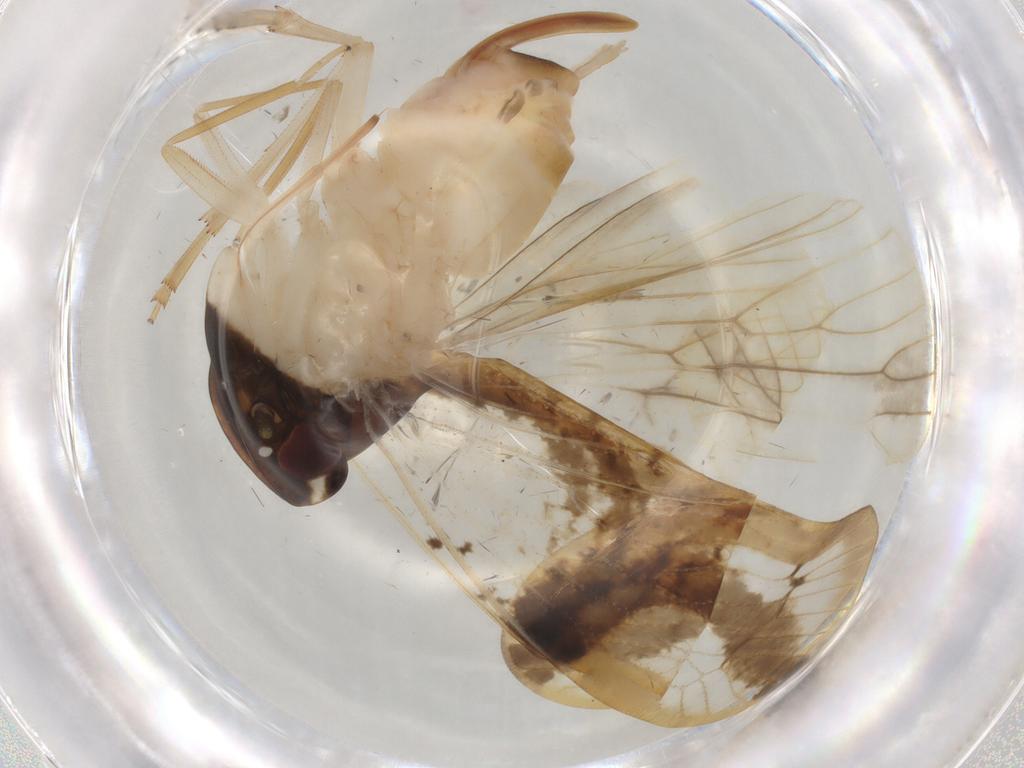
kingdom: Animalia
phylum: Arthropoda
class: Insecta
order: Hemiptera
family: Cixiidae
